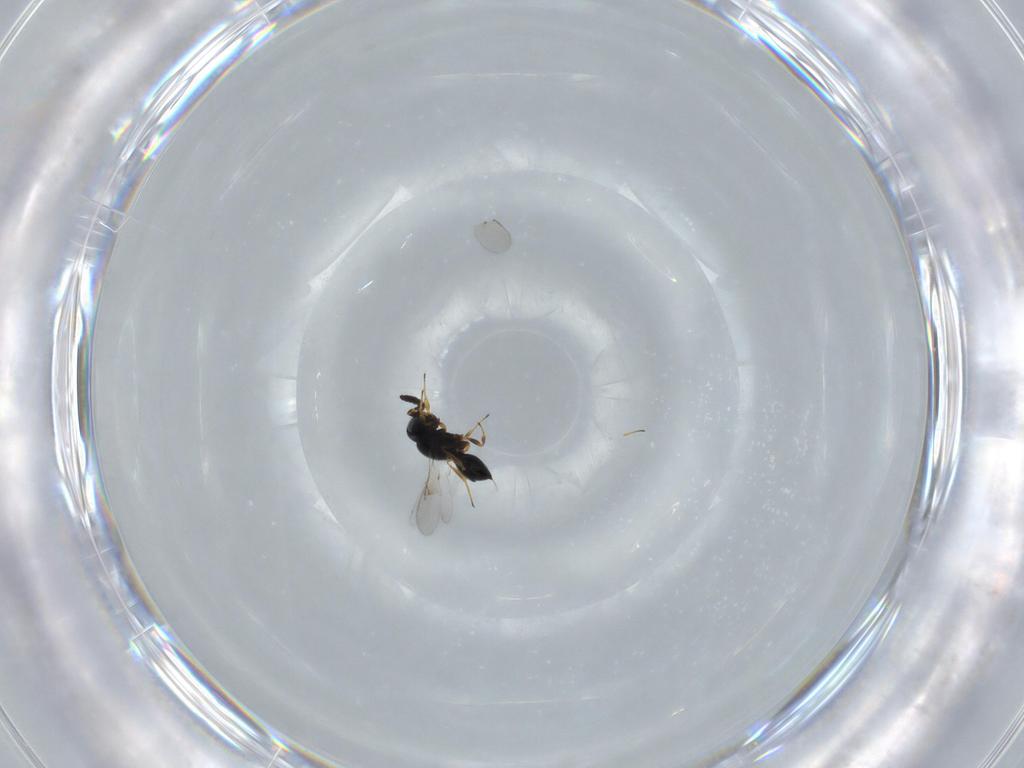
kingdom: Animalia
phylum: Arthropoda
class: Insecta
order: Hymenoptera
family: Scelionidae
